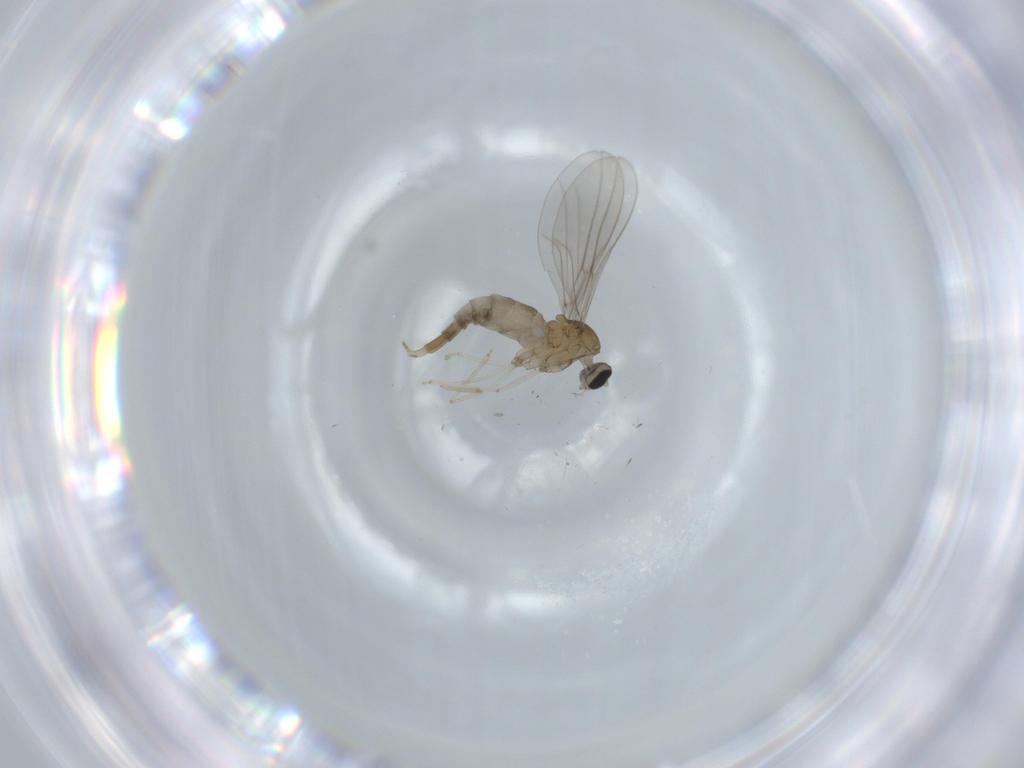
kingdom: Animalia
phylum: Arthropoda
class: Insecta
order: Diptera
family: Cecidomyiidae
